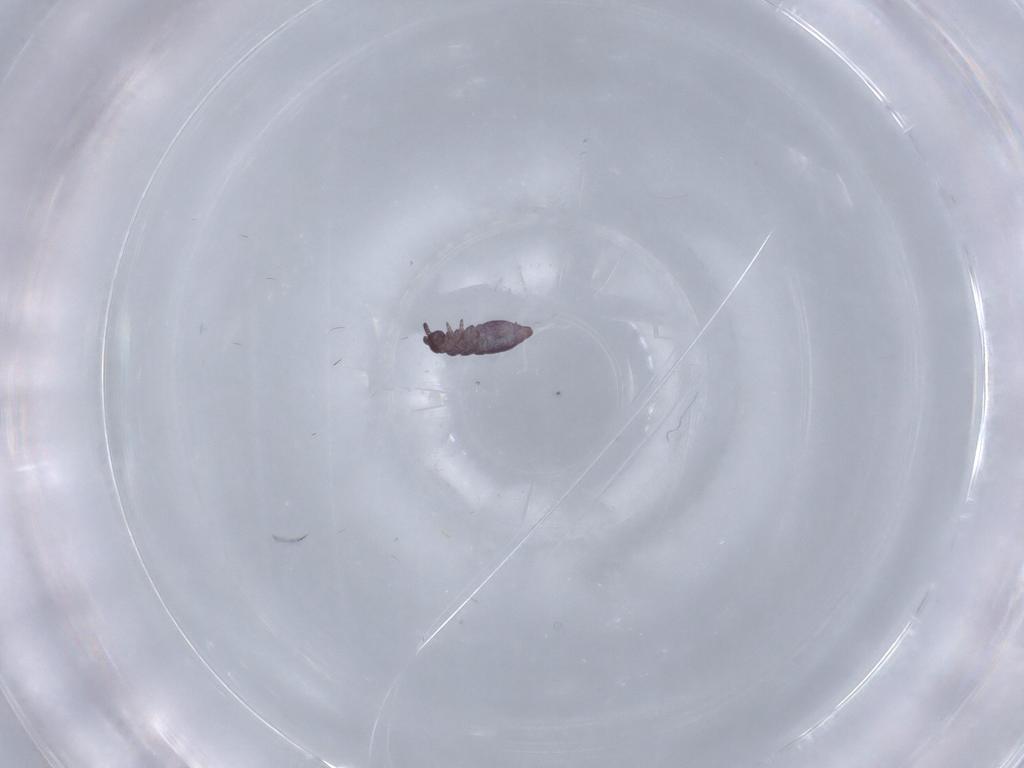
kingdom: Animalia
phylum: Arthropoda
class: Collembola
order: Poduromorpha
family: Hypogastruridae
